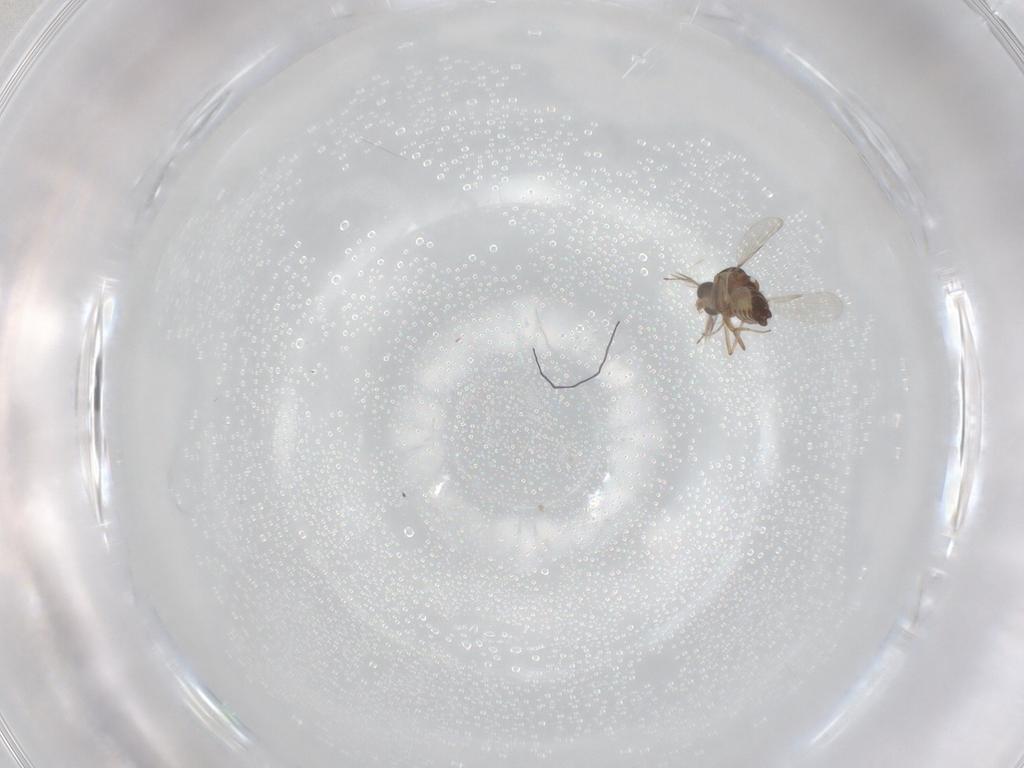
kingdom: Animalia
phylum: Arthropoda
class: Insecta
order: Diptera
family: Ceratopogonidae
